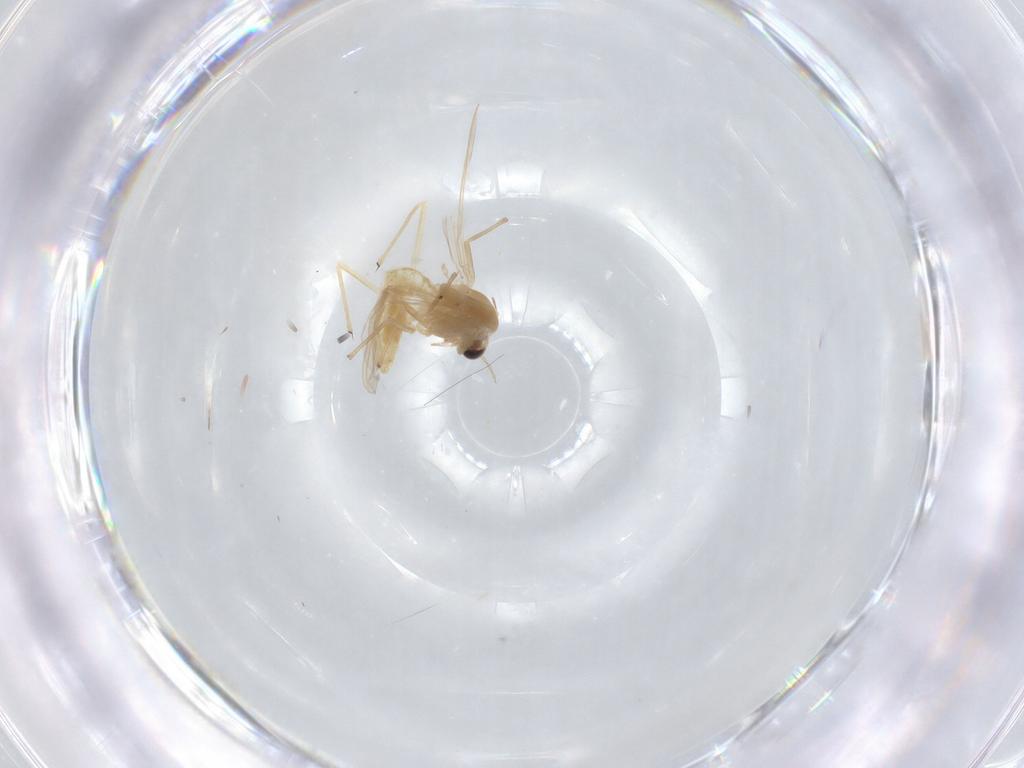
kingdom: Animalia
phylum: Arthropoda
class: Insecta
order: Diptera
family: Chironomidae
